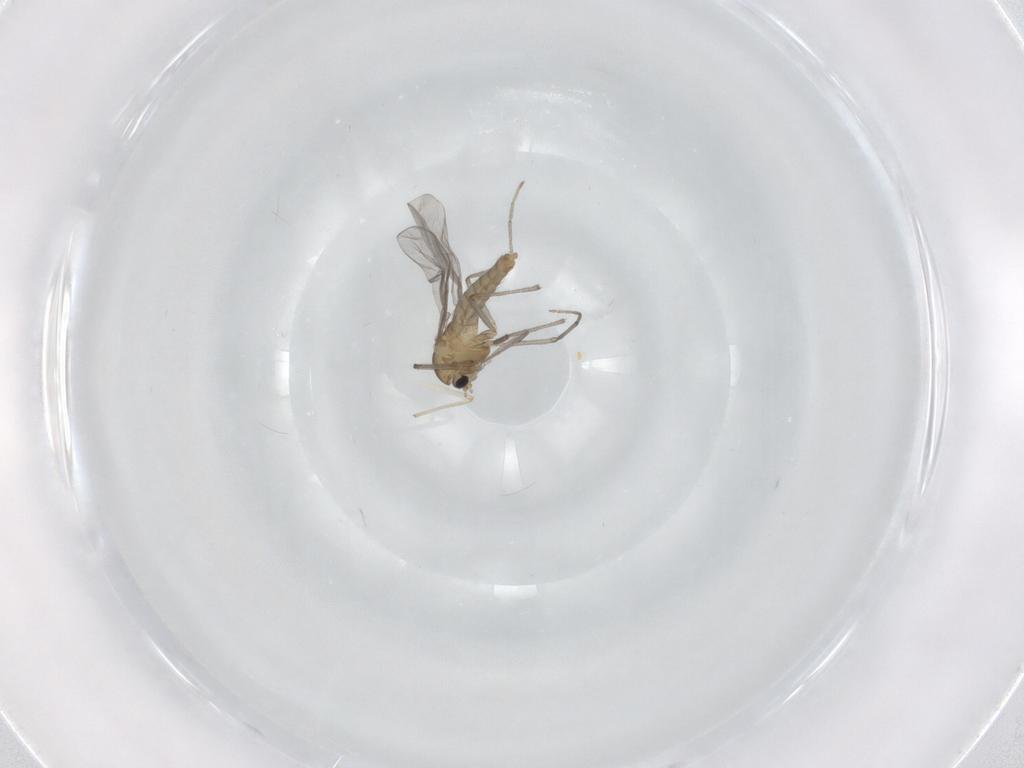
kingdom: Animalia
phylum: Arthropoda
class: Insecta
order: Diptera
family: Chironomidae
